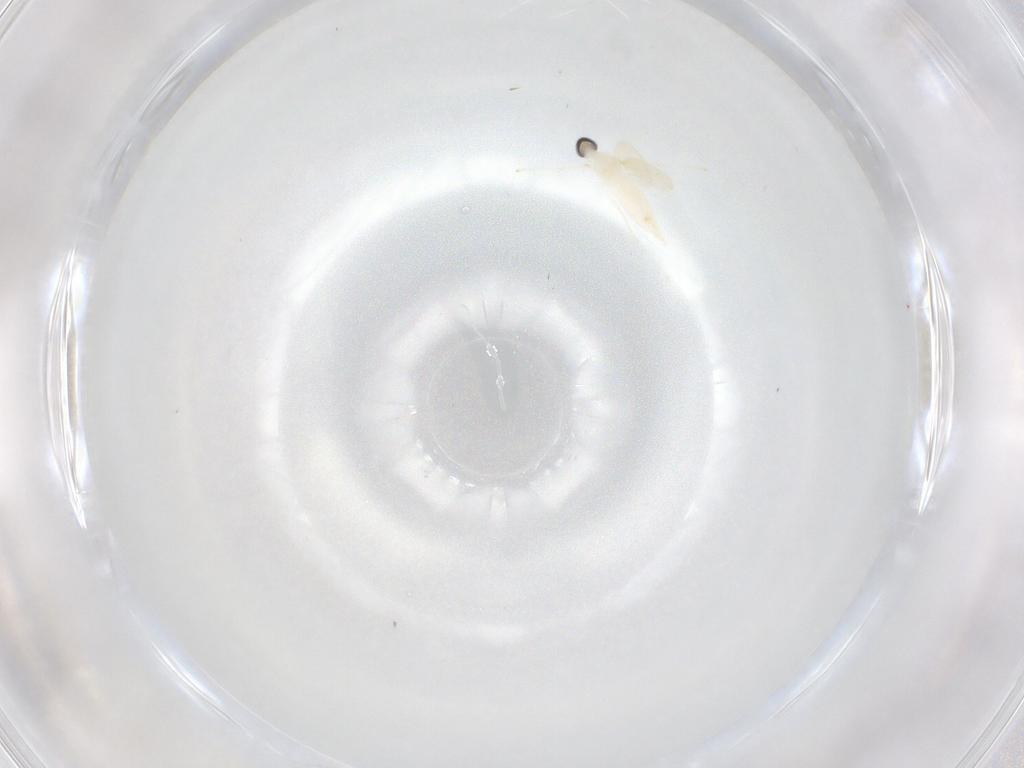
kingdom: Animalia
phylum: Arthropoda
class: Insecta
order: Diptera
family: Cecidomyiidae
